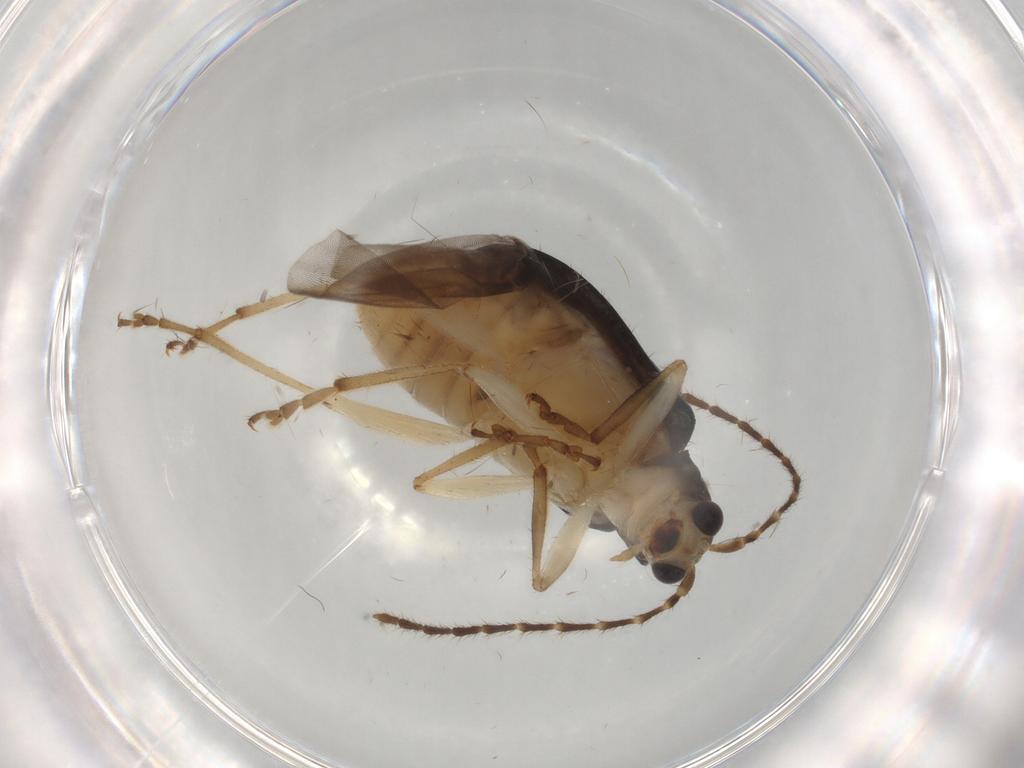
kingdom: Animalia
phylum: Arthropoda
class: Insecta
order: Coleoptera
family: Chrysomelidae
